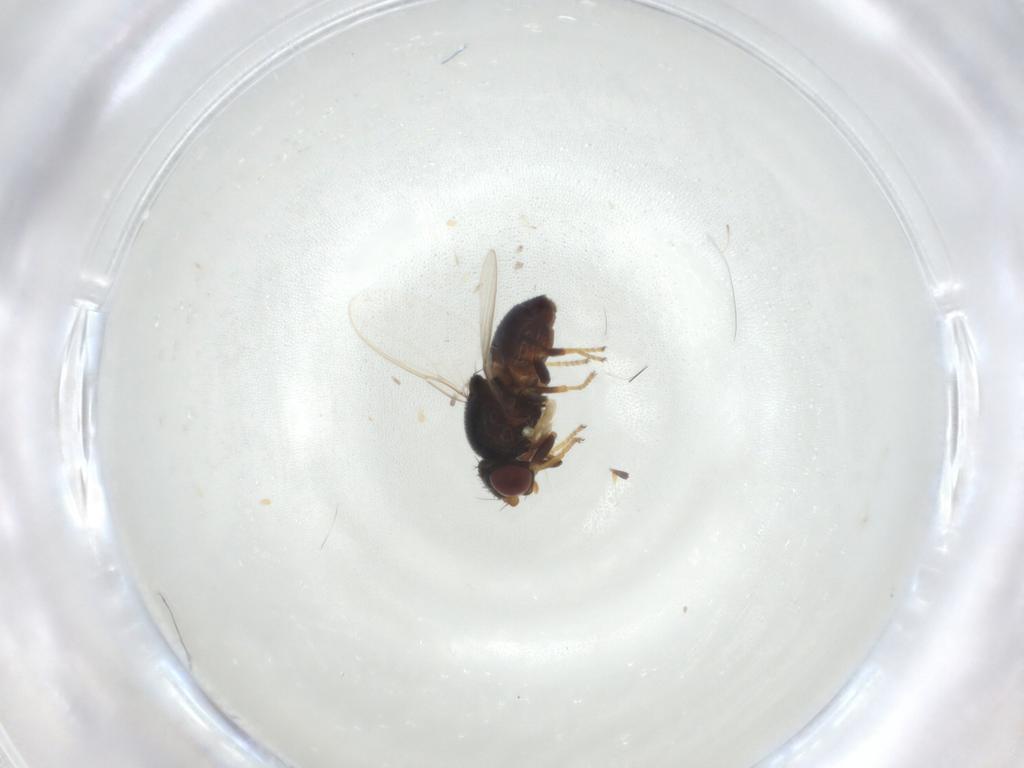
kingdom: Animalia
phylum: Arthropoda
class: Insecta
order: Diptera
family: Chloropidae
